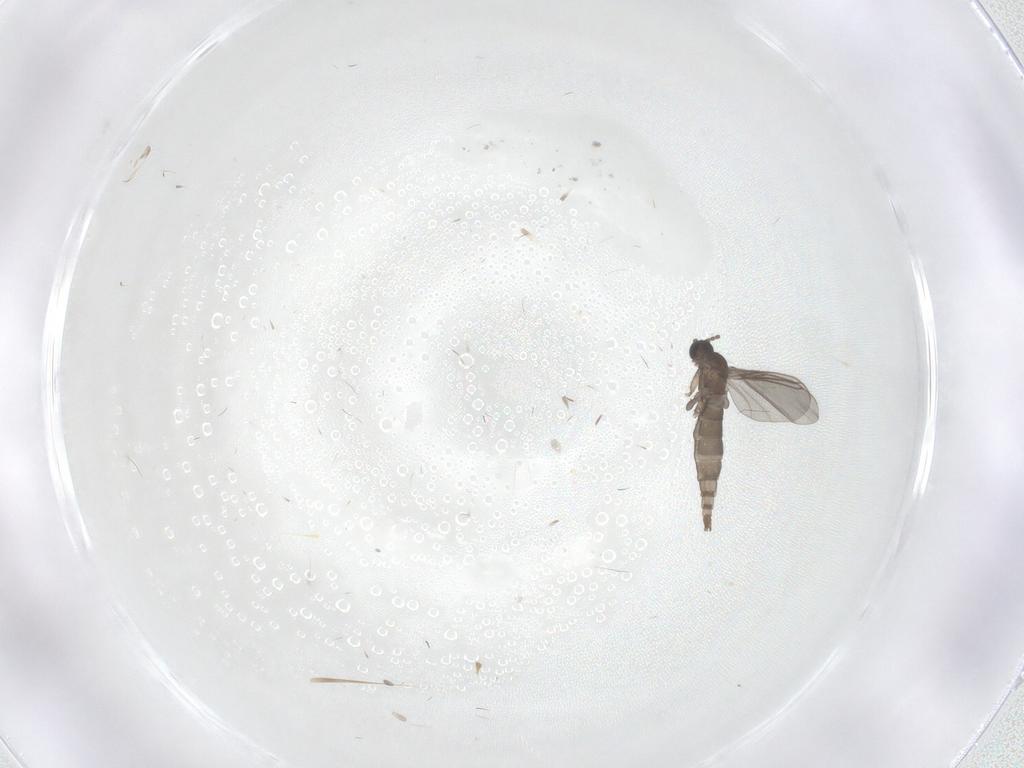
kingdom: Animalia
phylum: Arthropoda
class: Insecta
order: Diptera
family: Sciaridae
